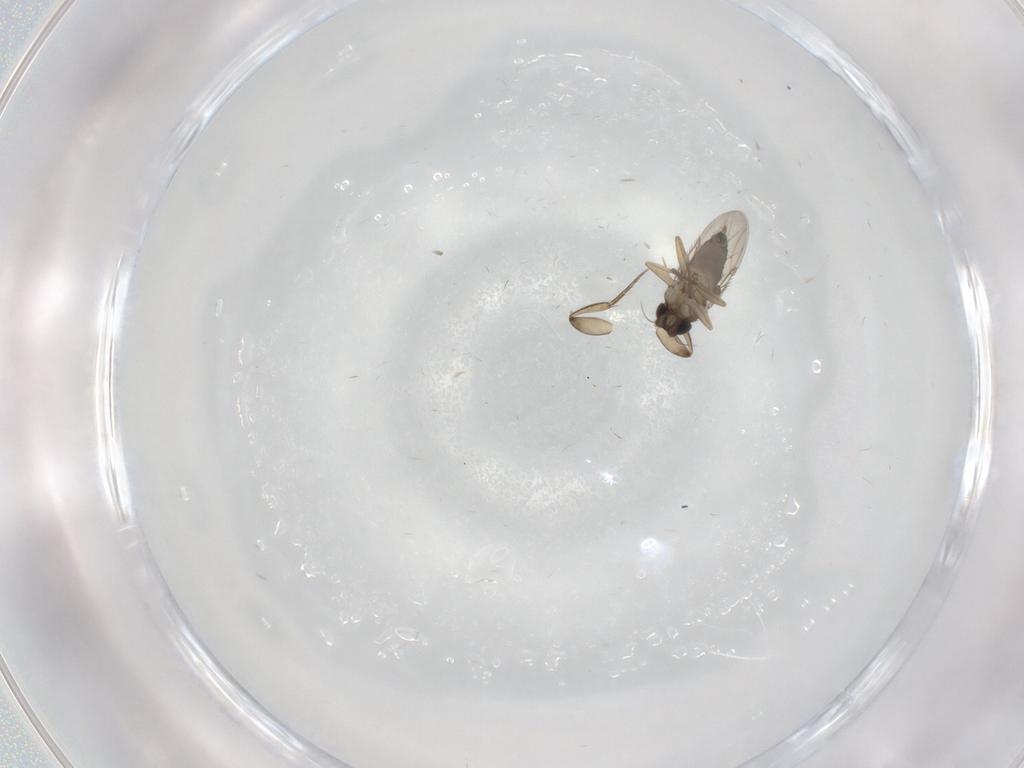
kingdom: Animalia
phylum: Arthropoda
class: Insecta
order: Diptera
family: Phoridae
